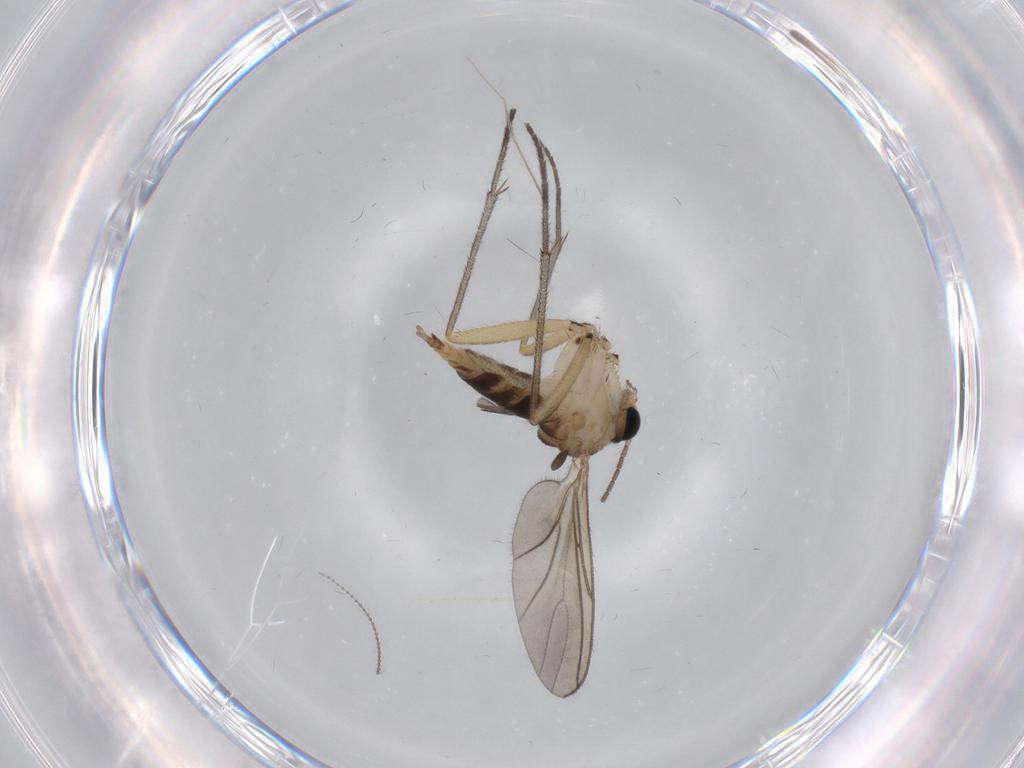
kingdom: Animalia
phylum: Arthropoda
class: Insecta
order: Diptera
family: Sciaridae
